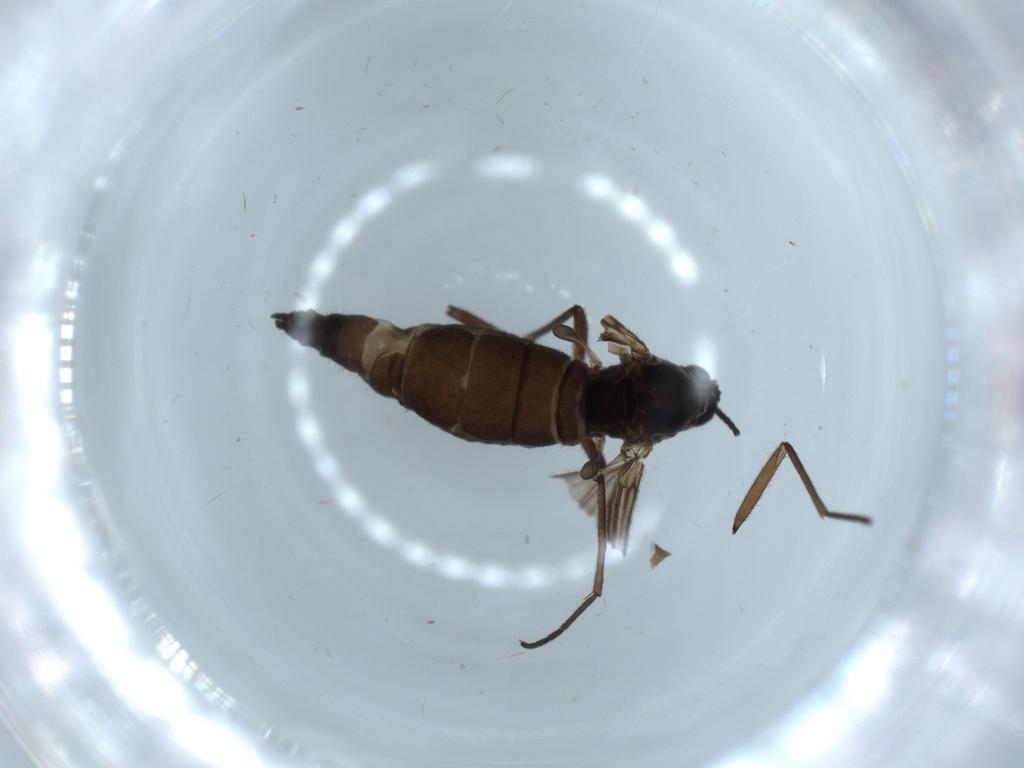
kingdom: Animalia
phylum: Arthropoda
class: Insecta
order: Diptera
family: Sciaridae
